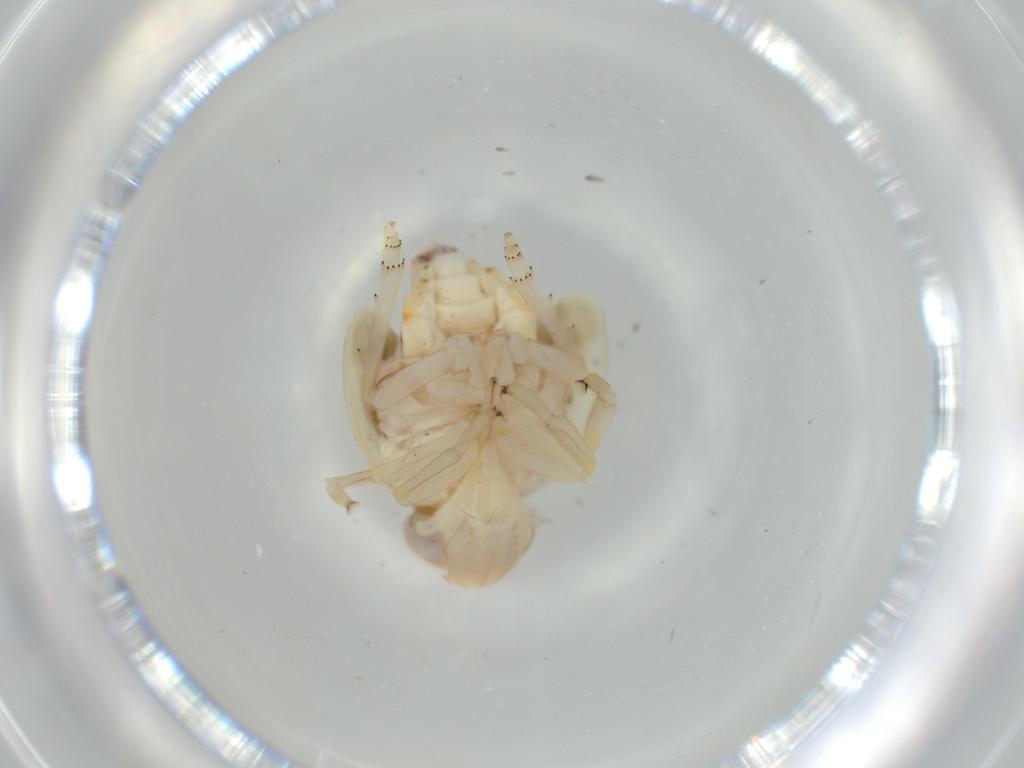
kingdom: Animalia
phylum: Arthropoda
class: Insecta
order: Hemiptera
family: Nogodinidae
